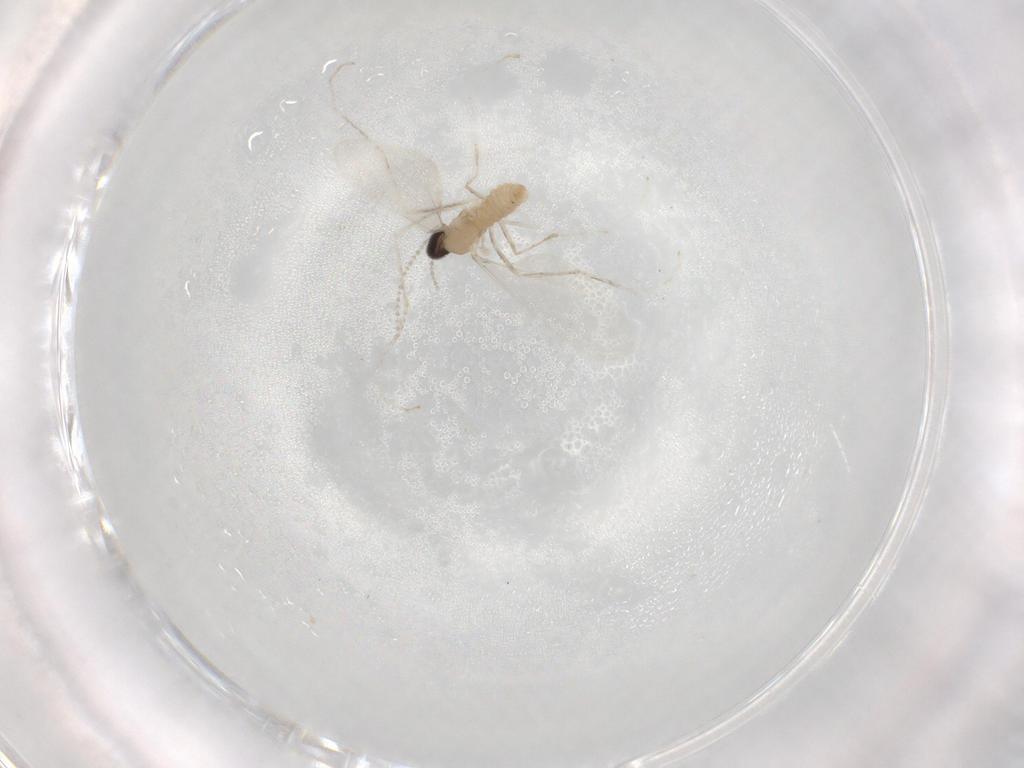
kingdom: Animalia
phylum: Arthropoda
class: Insecta
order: Diptera
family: Cecidomyiidae
